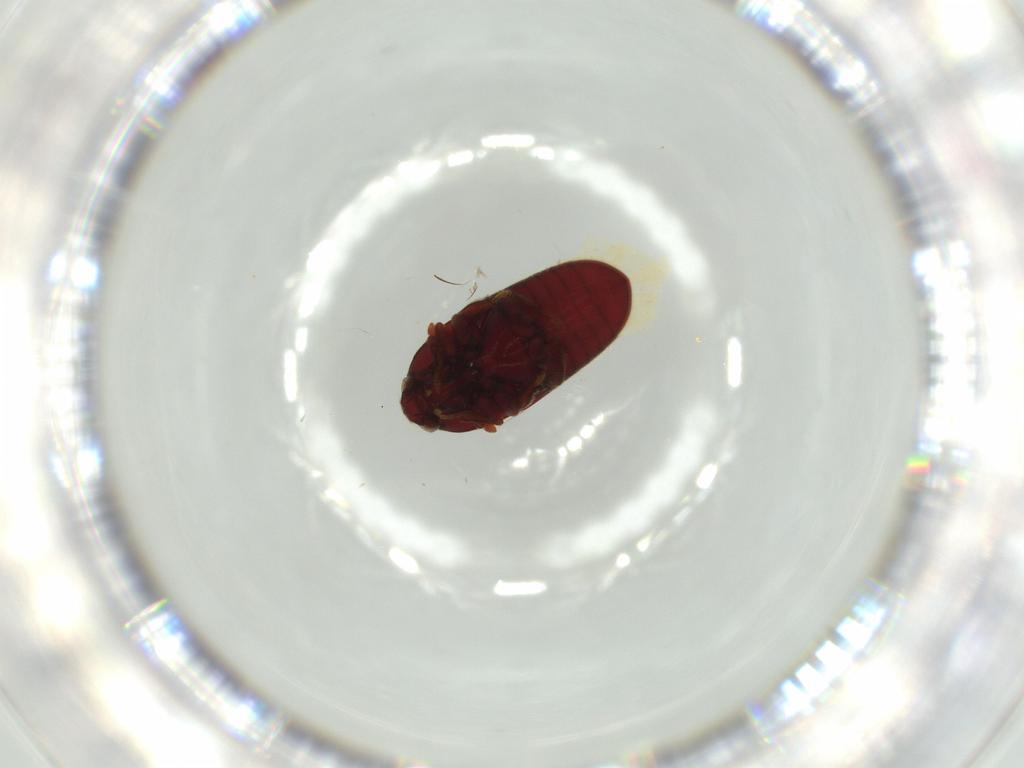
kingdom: Animalia
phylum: Arthropoda
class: Insecta
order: Coleoptera
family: Throscidae
